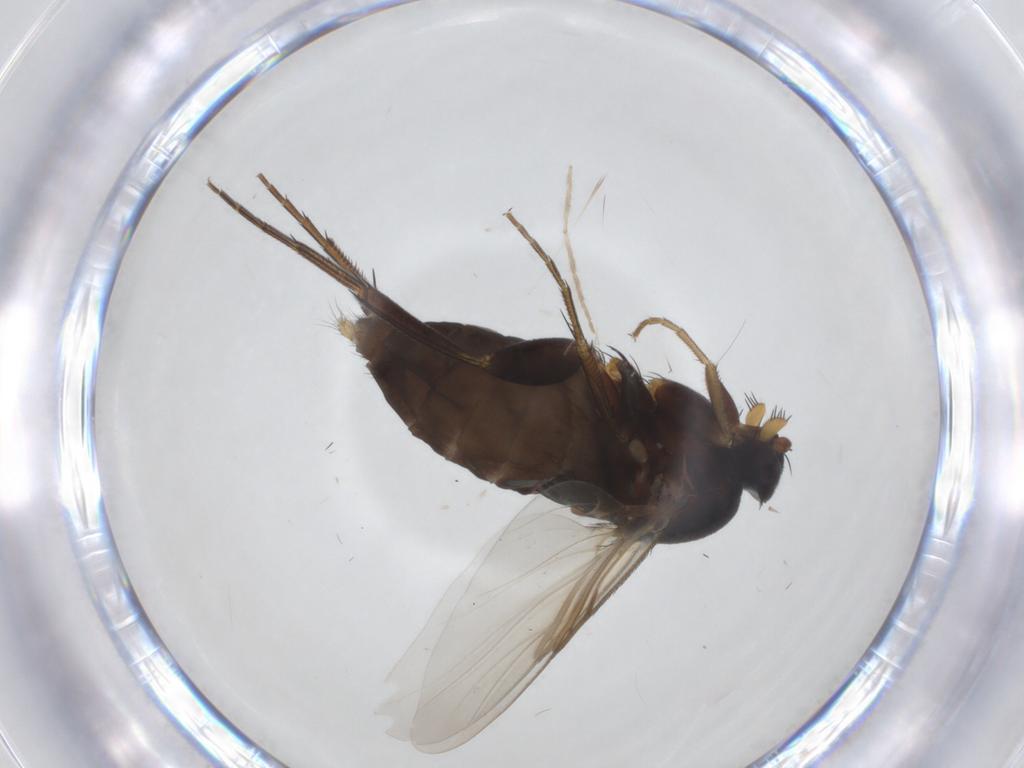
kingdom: Animalia
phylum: Arthropoda
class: Insecta
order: Diptera
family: Phoridae
